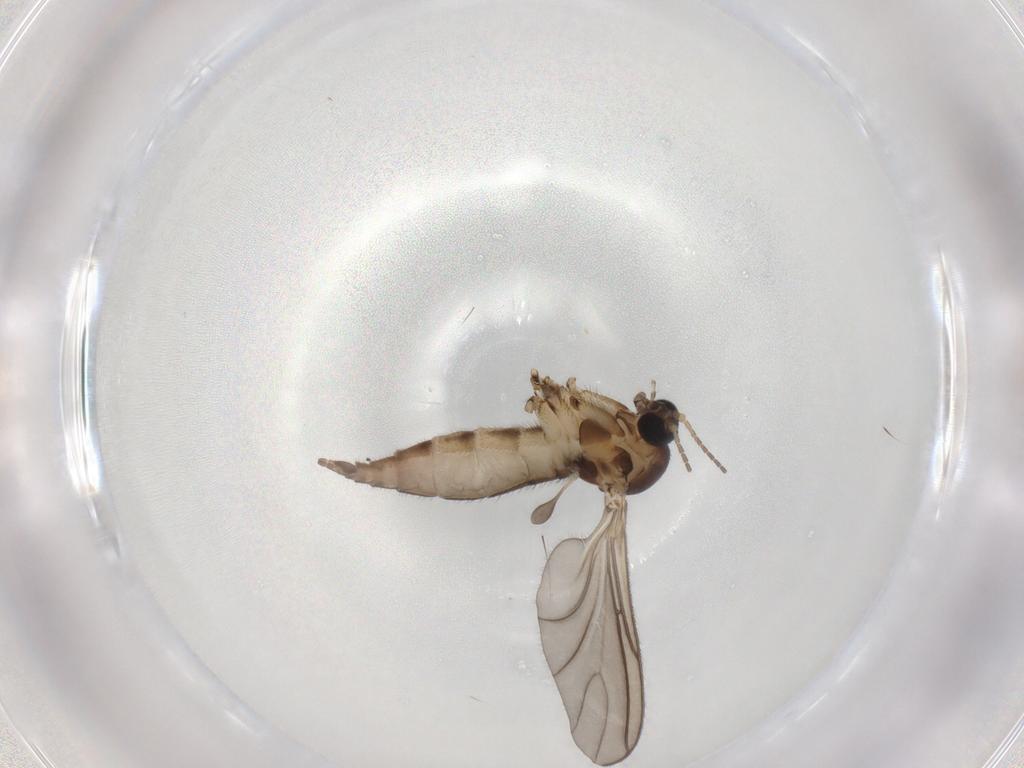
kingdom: Animalia
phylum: Arthropoda
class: Insecta
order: Diptera
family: Sciaridae
